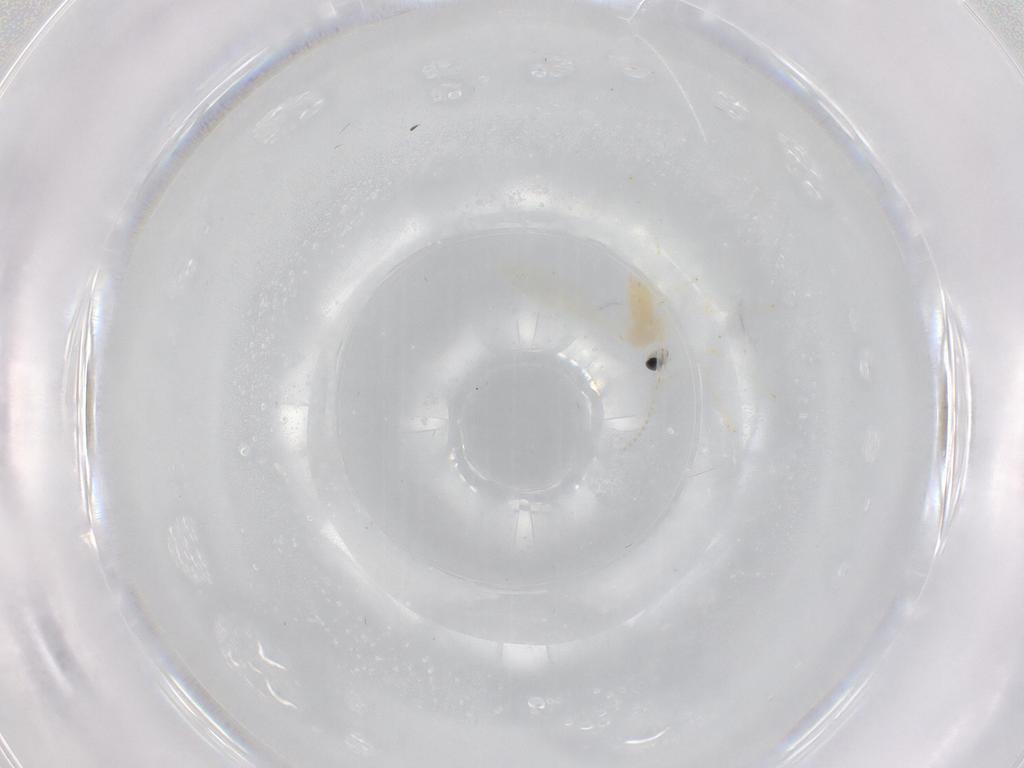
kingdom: Animalia
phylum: Arthropoda
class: Insecta
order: Diptera
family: Cecidomyiidae
